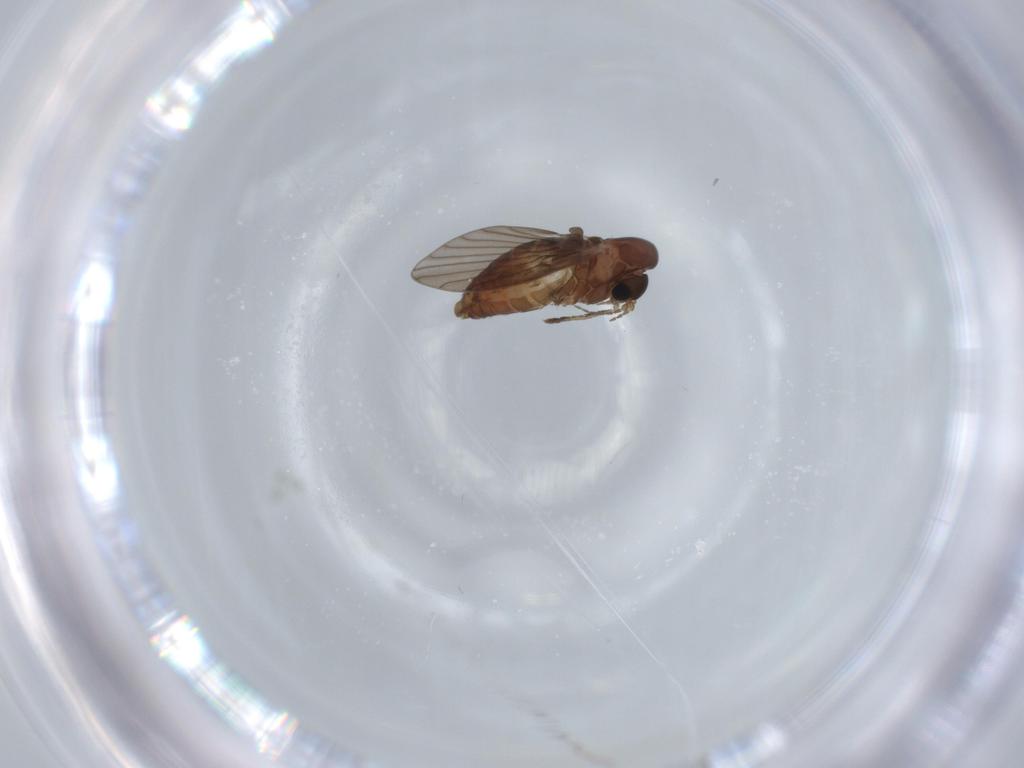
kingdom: Animalia
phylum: Arthropoda
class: Insecta
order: Diptera
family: Psychodidae
